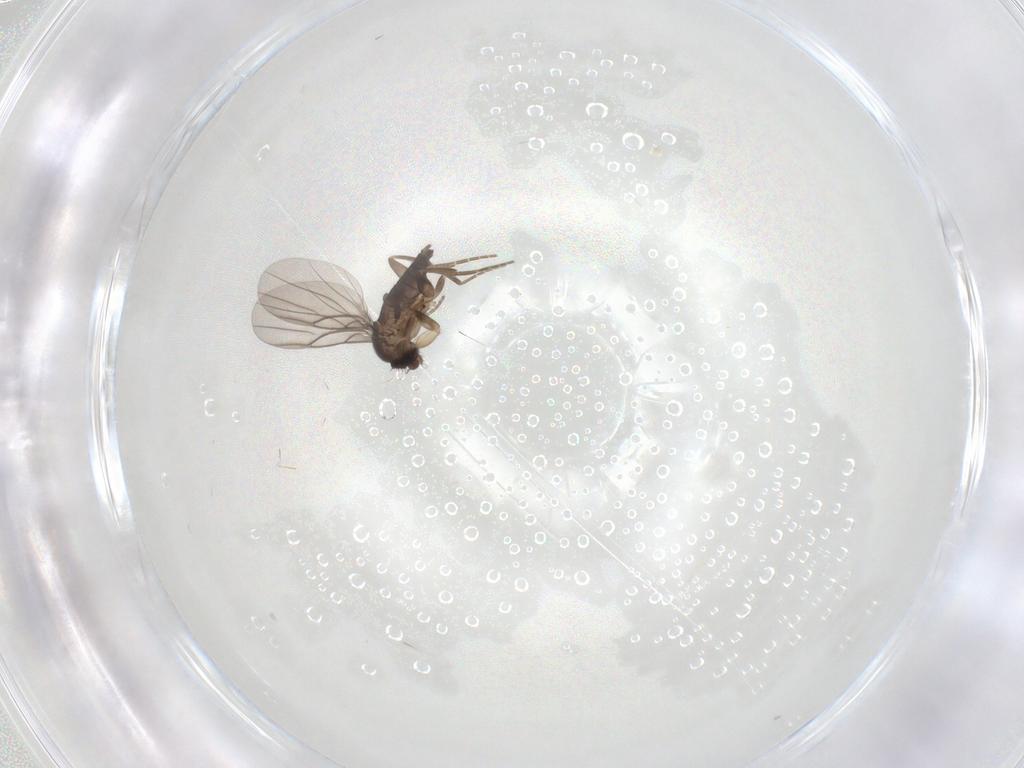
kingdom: Animalia
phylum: Arthropoda
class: Insecta
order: Diptera
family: Phoridae
